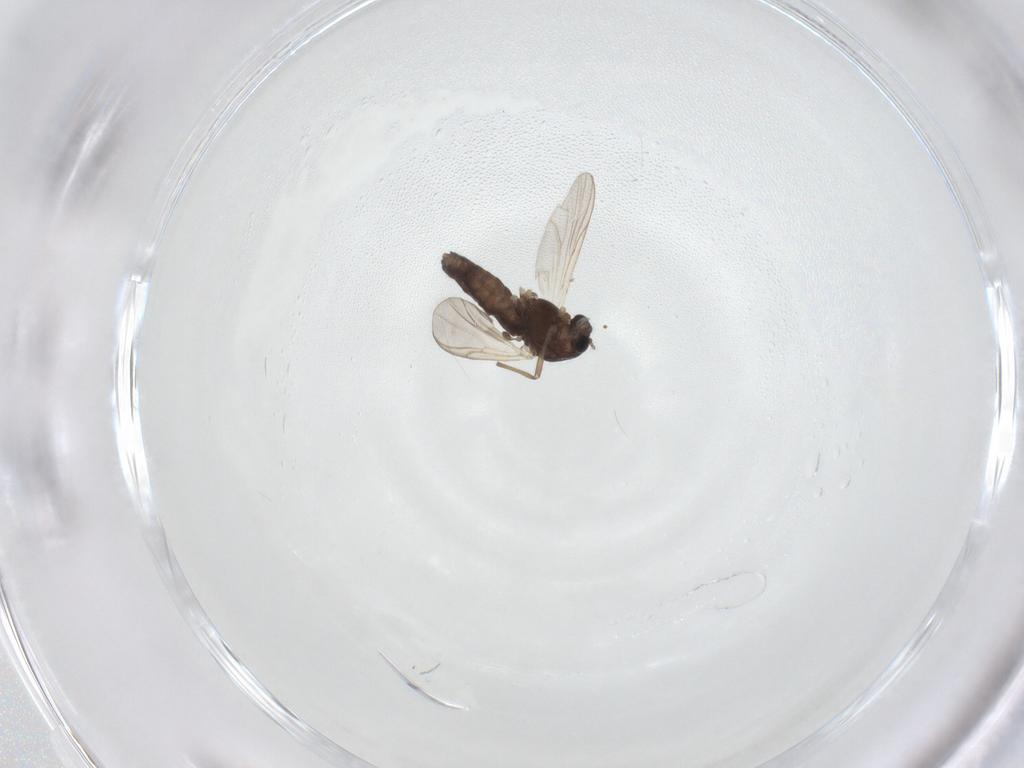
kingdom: Animalia
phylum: Arthropoda
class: Insecta
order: Diptera
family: Chironomidae
